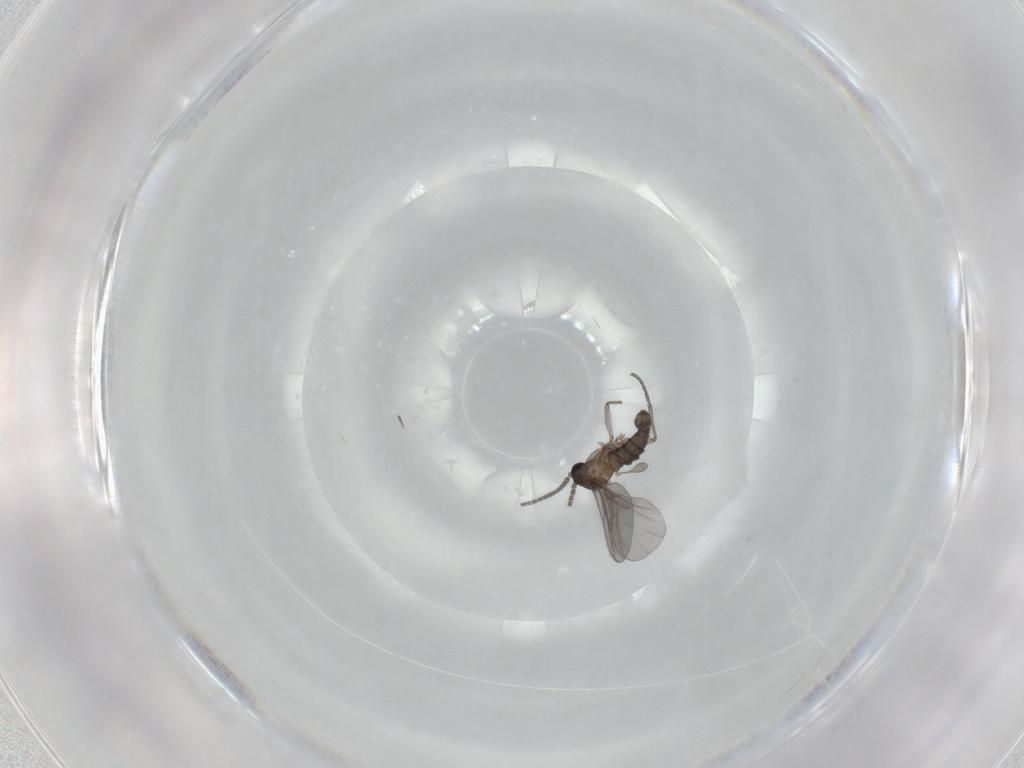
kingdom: Animalia
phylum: Arthropoda
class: Insecta
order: Diptera
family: Sciaridae
